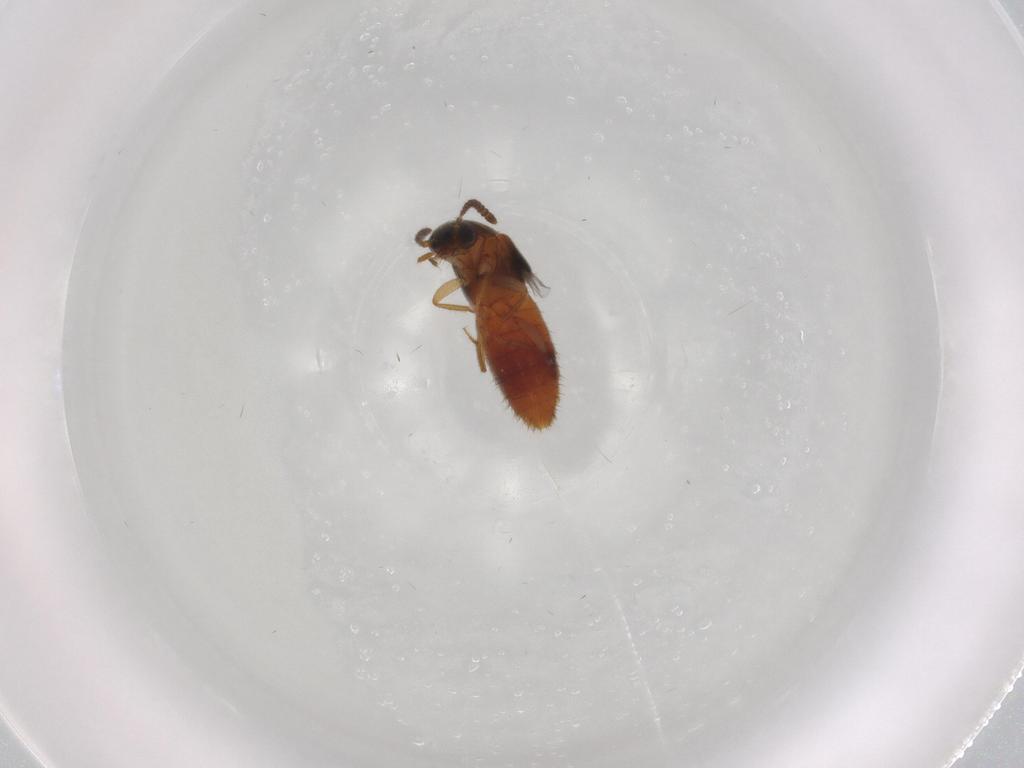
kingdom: Animalia
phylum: Arthropoda
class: Insecta
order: Coleoptera
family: Staphylinidae
